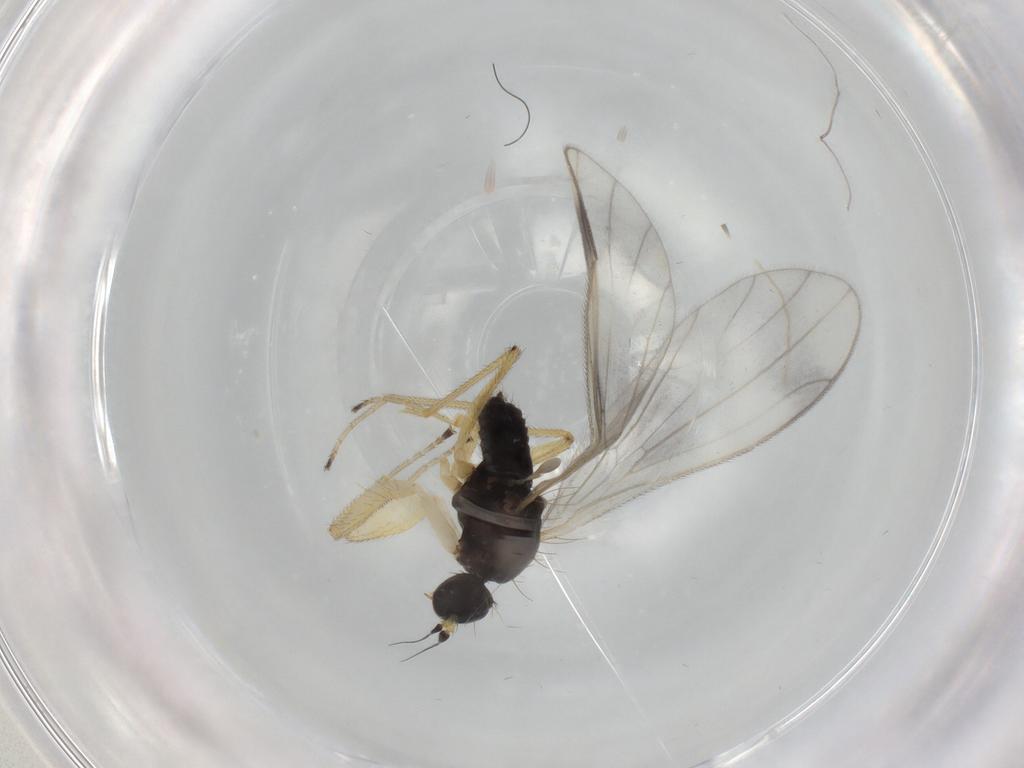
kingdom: Animalia
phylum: Arthropoda
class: Insecta
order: Diptera
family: Empididae
